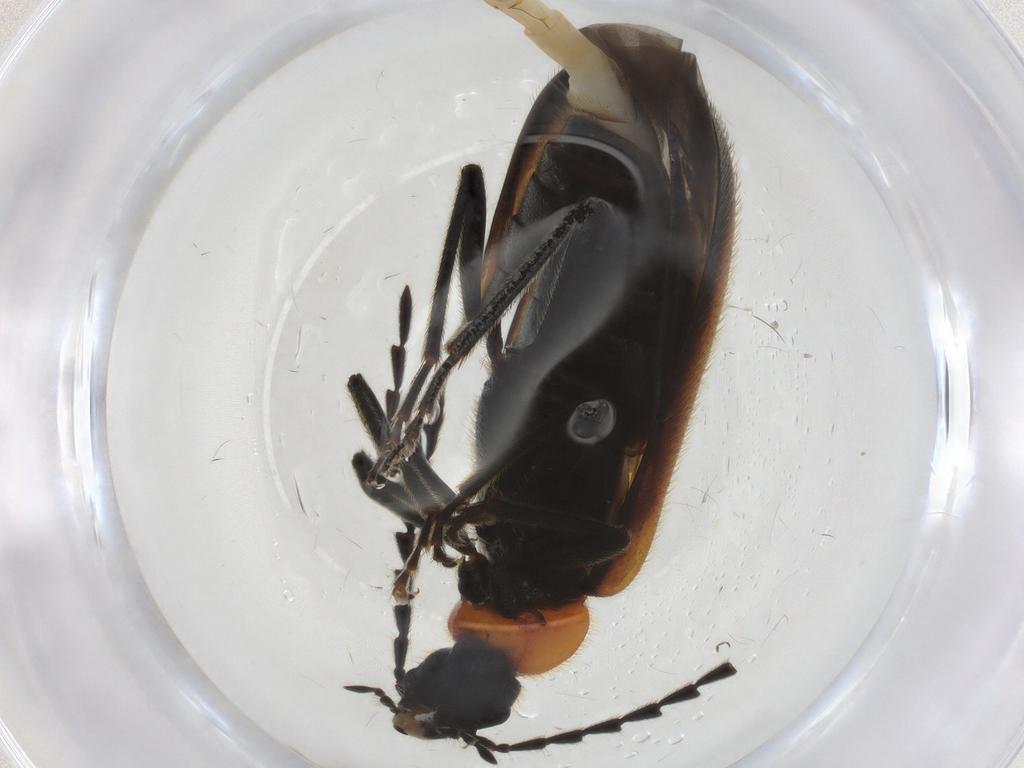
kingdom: Animalia
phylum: Arthropoda
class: Insecta
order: Coleoptera
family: Pyrochroidae
